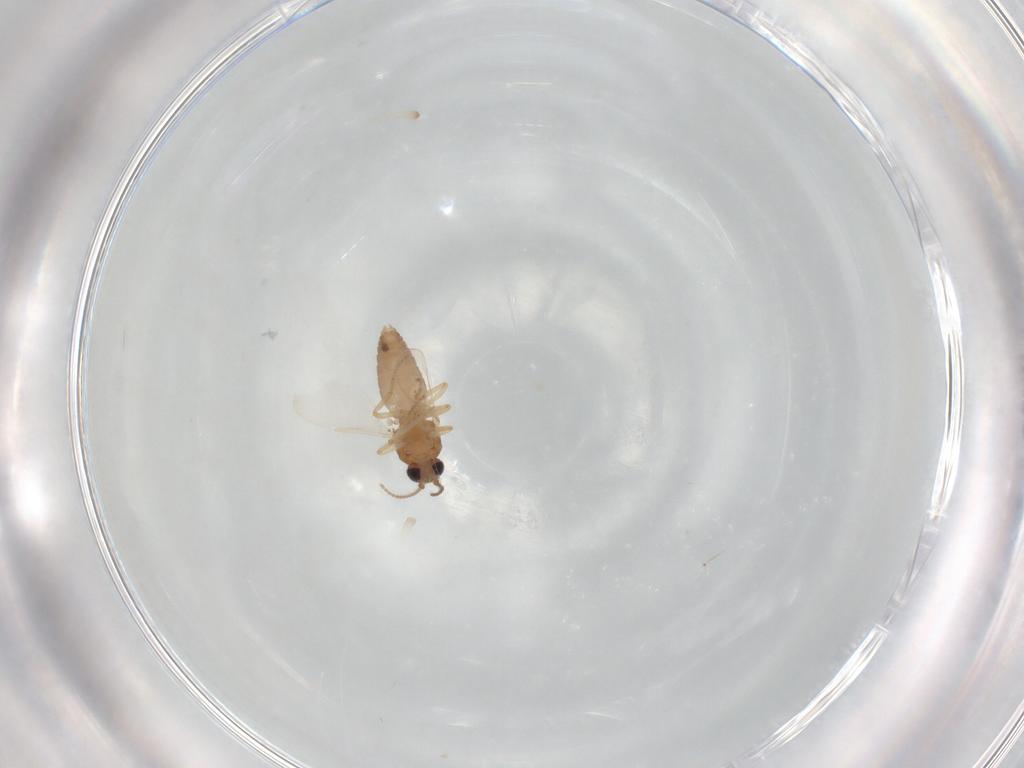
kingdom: Animalia
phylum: Arthropoda
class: Insecta
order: Diptera
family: Syrphidae
